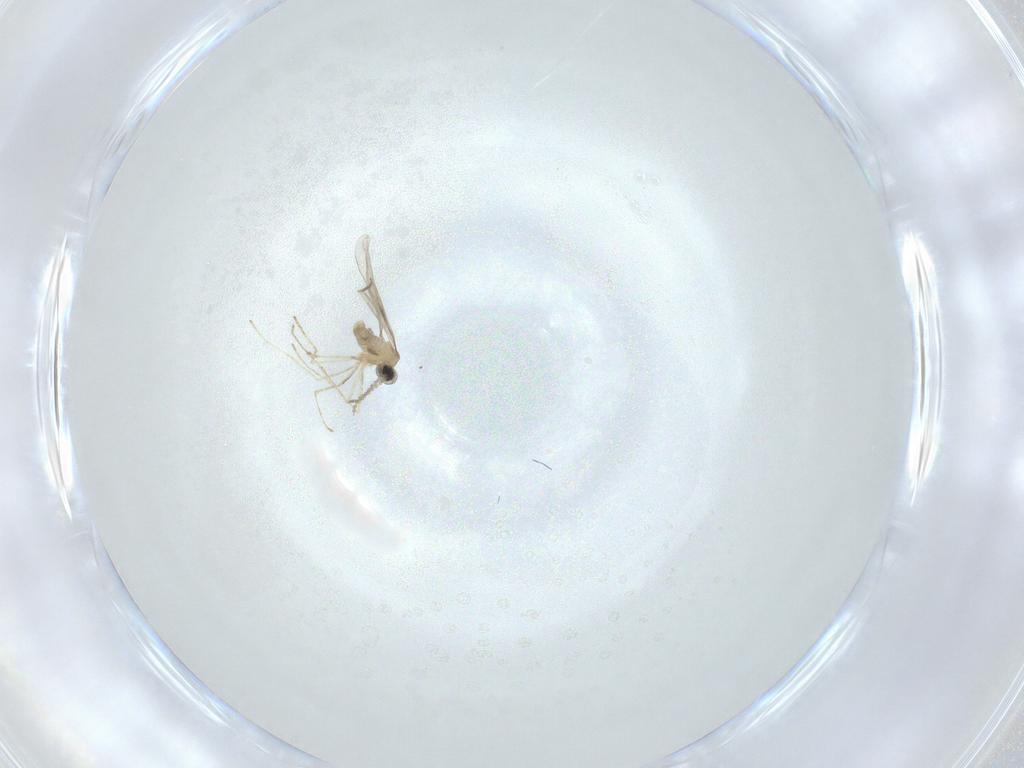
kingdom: Animalia
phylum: Arthropoda
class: Insecta
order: Diptera
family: Cecidomyiidae
